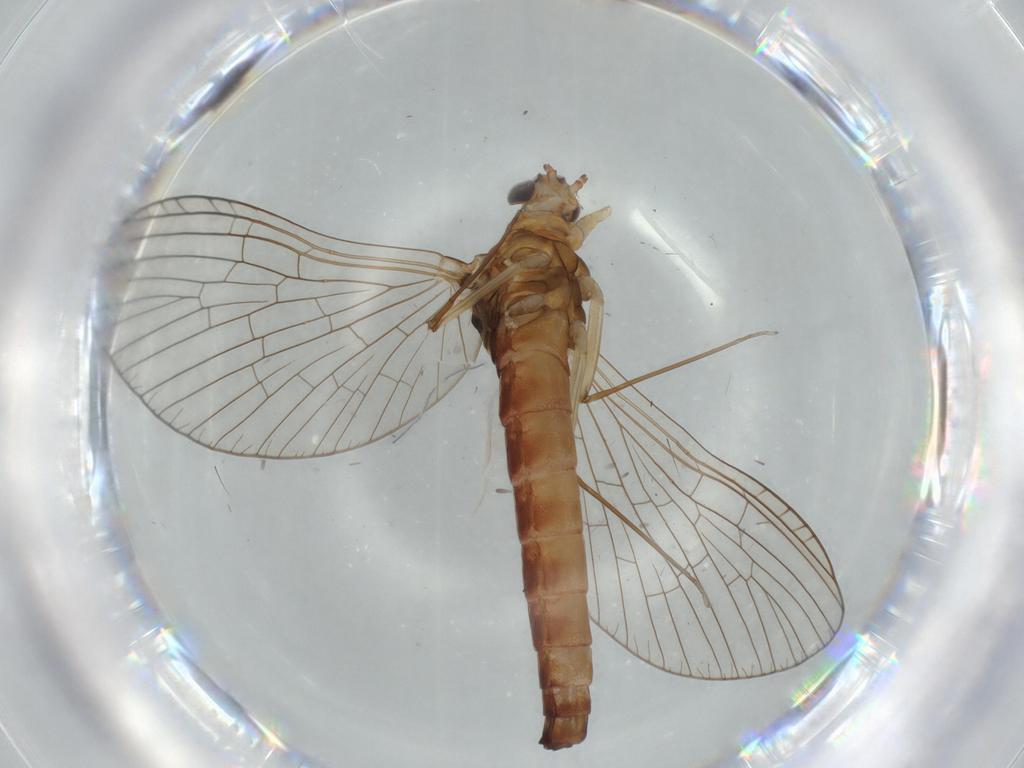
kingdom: Animalia
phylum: Arthropoda
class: Insecta
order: Ephemeroptera
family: Baetidae
